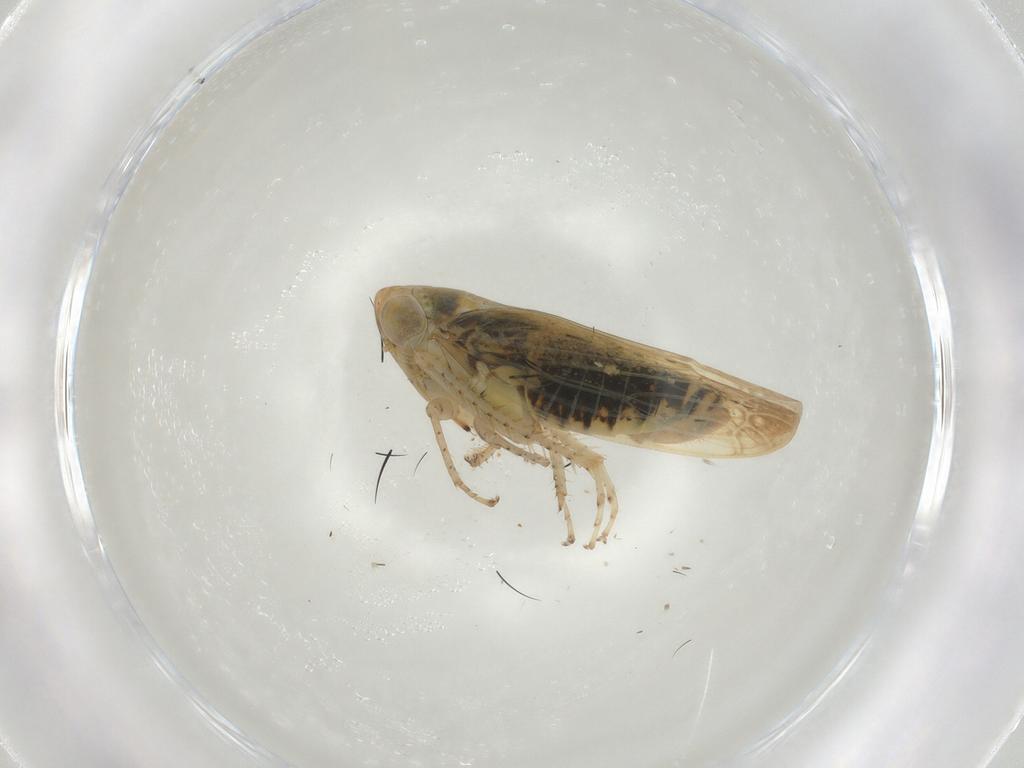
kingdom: Animalia
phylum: Arthropoda
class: Insecta
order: Hemiptera
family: Cicadellidae
